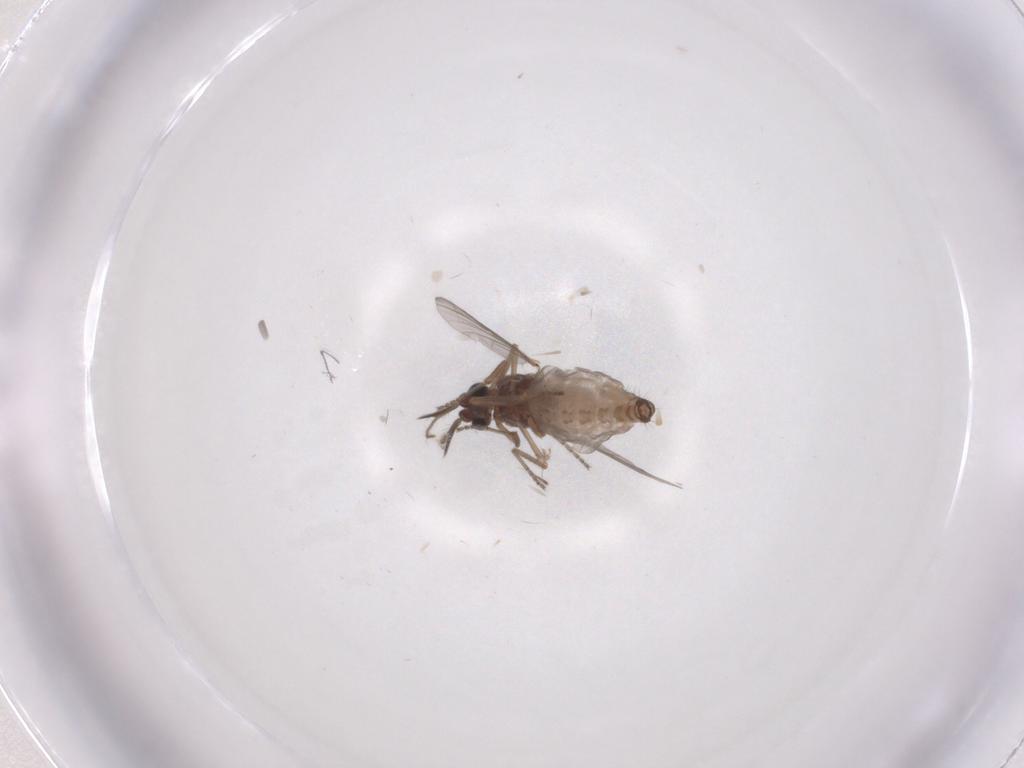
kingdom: Animalia
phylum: Arthropoda
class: Insecta
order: Diptera
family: Ceratopogonidae
